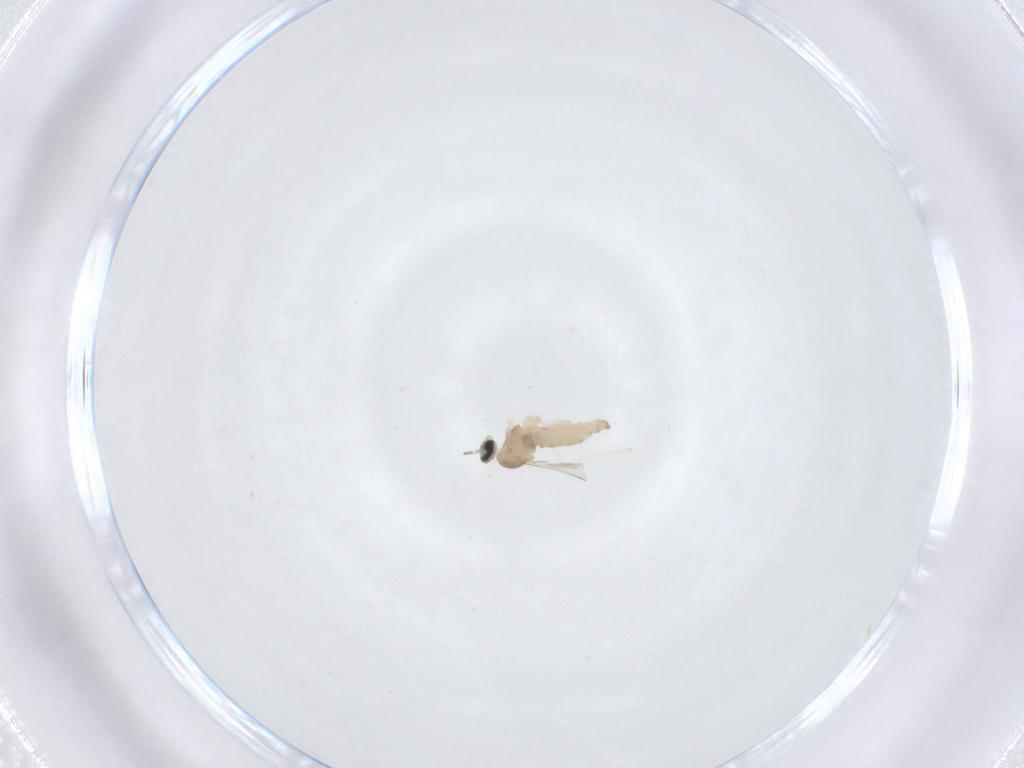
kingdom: Animalia
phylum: Arthropoda
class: Insecta
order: Diptera
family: Cecidomyiidae
